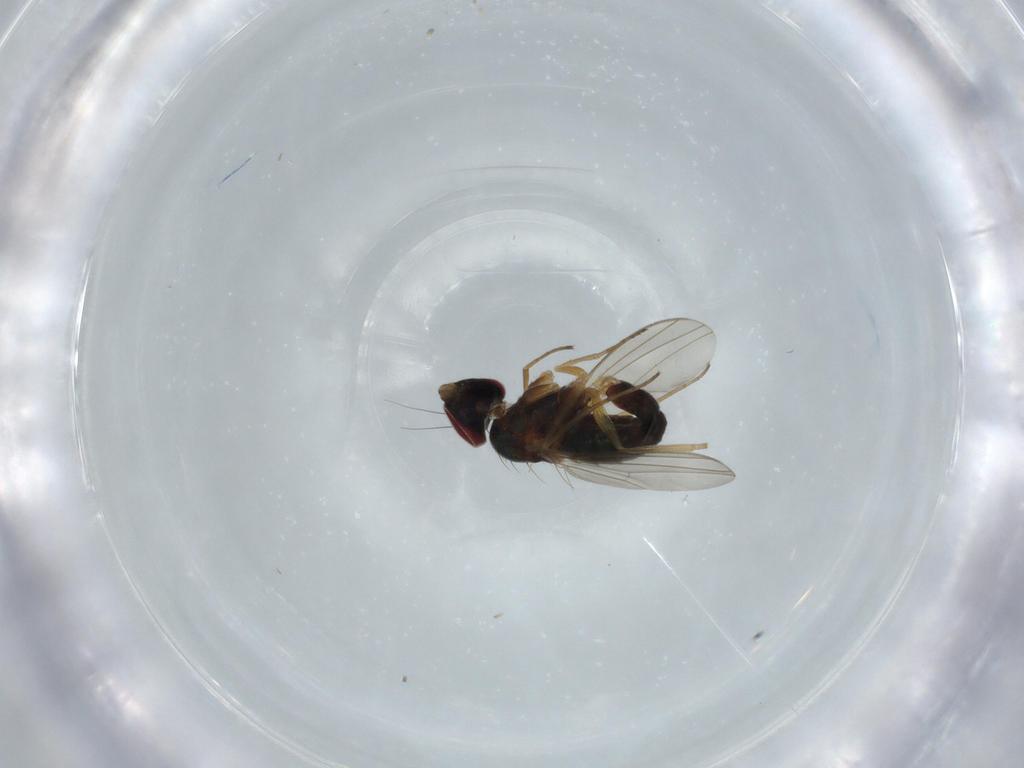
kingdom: Animalia
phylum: Arthropoda
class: Insecta
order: Diptera
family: Dolichopodidae
